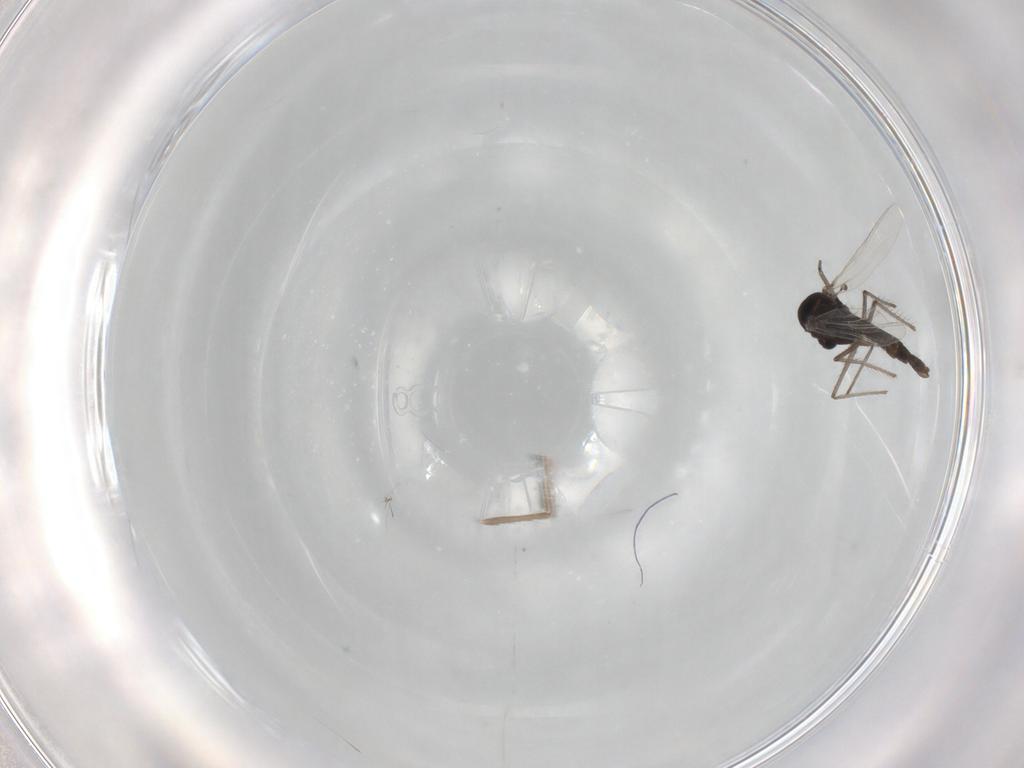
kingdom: Animalia
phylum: Arthropoda
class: Insecta
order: Diptera
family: Chironomidae
